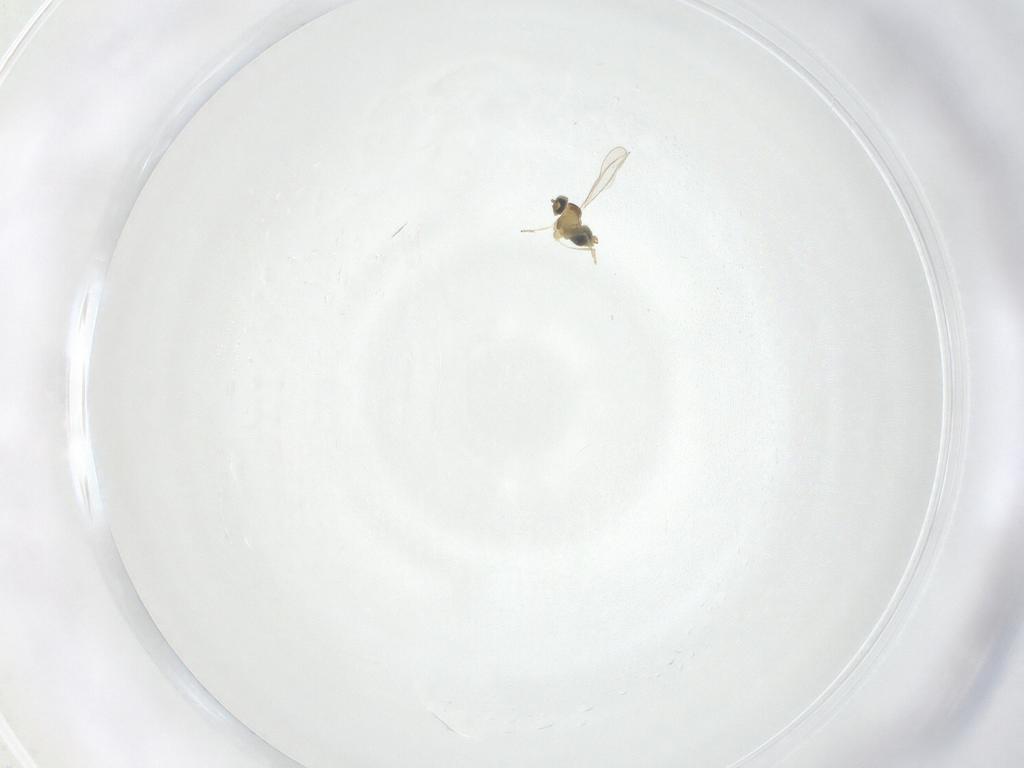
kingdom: Animalia
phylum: Arthropoda
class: Insecta
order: Diptera
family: Cecidomyiidae
